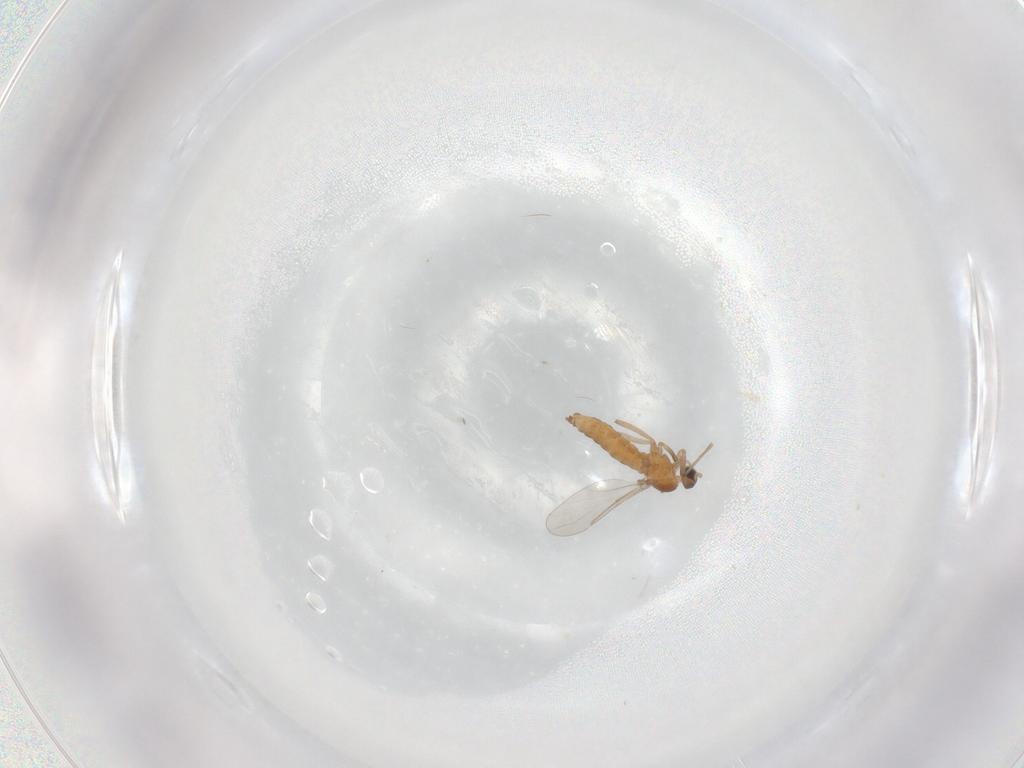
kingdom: Animalia
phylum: Arthropoda
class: Insecta
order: Diptera
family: Cecidomyiidae
